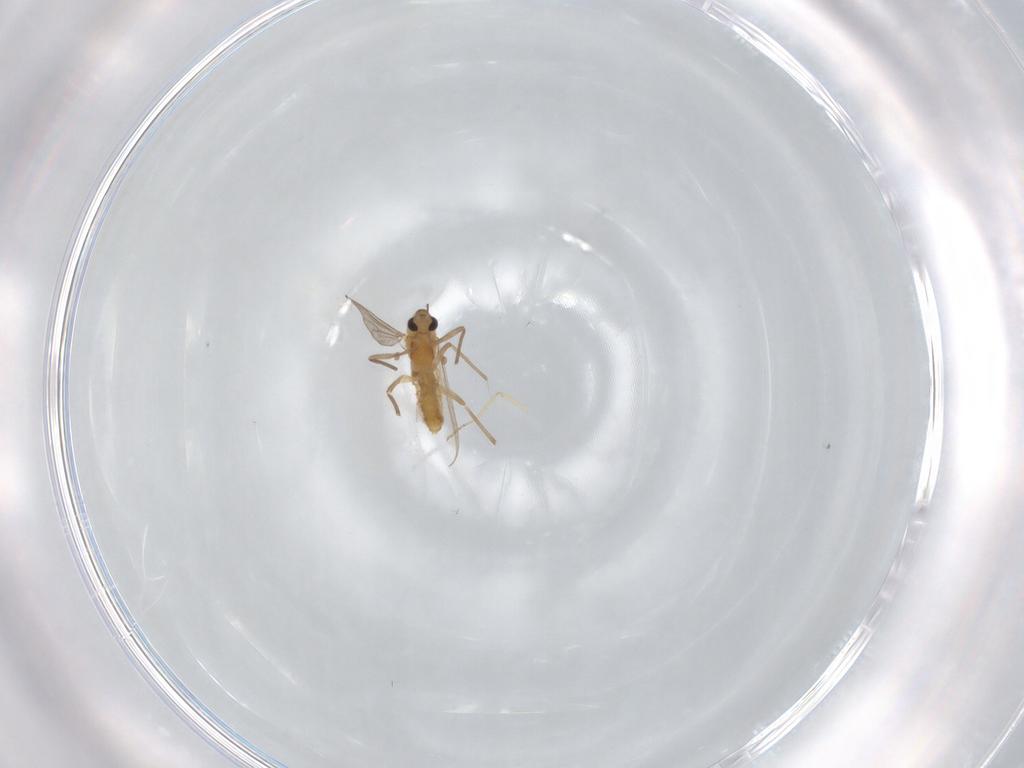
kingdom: Animalia
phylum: Arthropoda
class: Insecta
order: Diptera
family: Chironomidae
